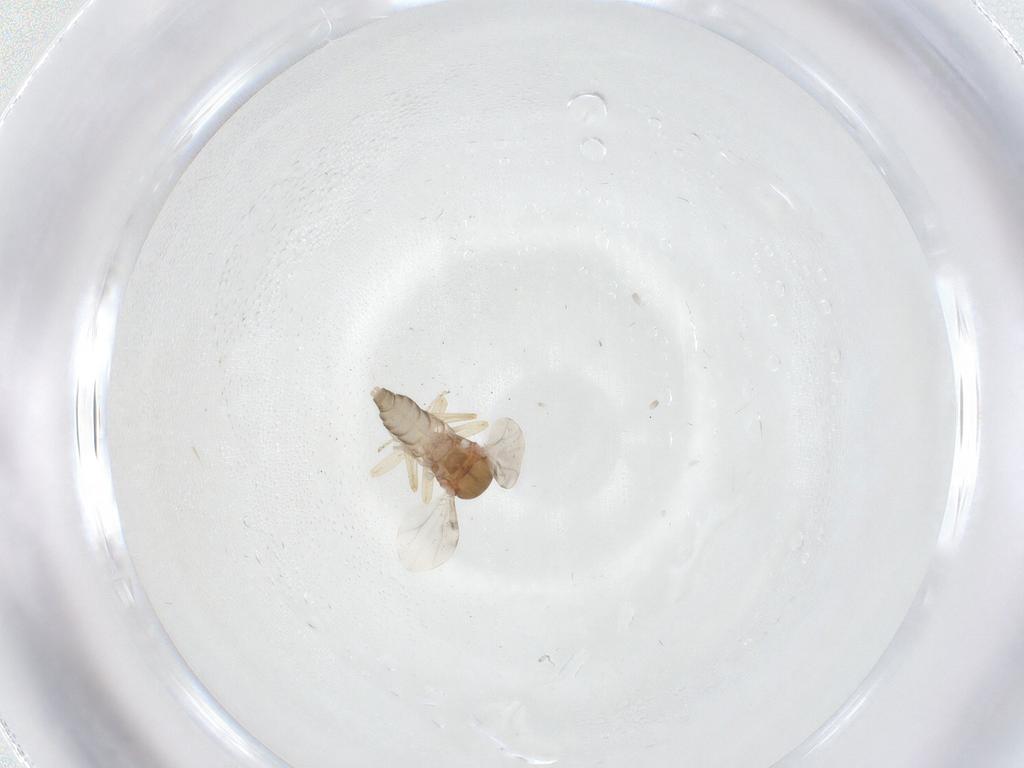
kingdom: Animalia
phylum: Arthropoda
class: Insecta
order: Diptera
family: Ceratopogonidae
